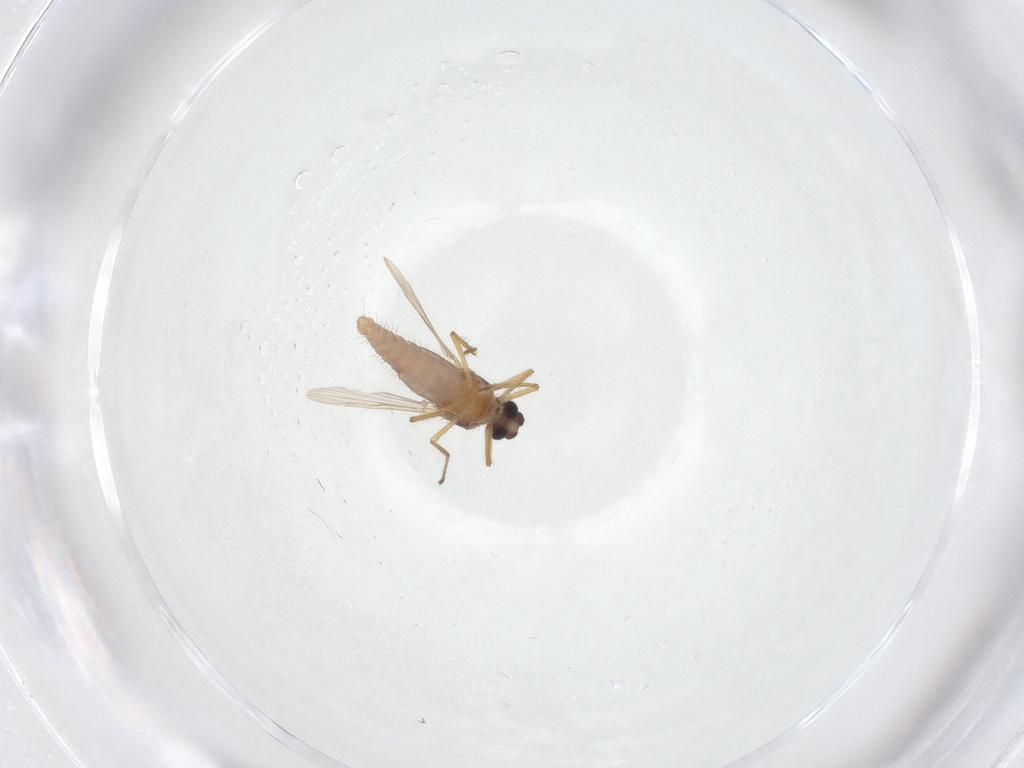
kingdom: Animalia
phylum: Arthropoda
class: Insecta
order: Diptera
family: Ceratopogonidae
